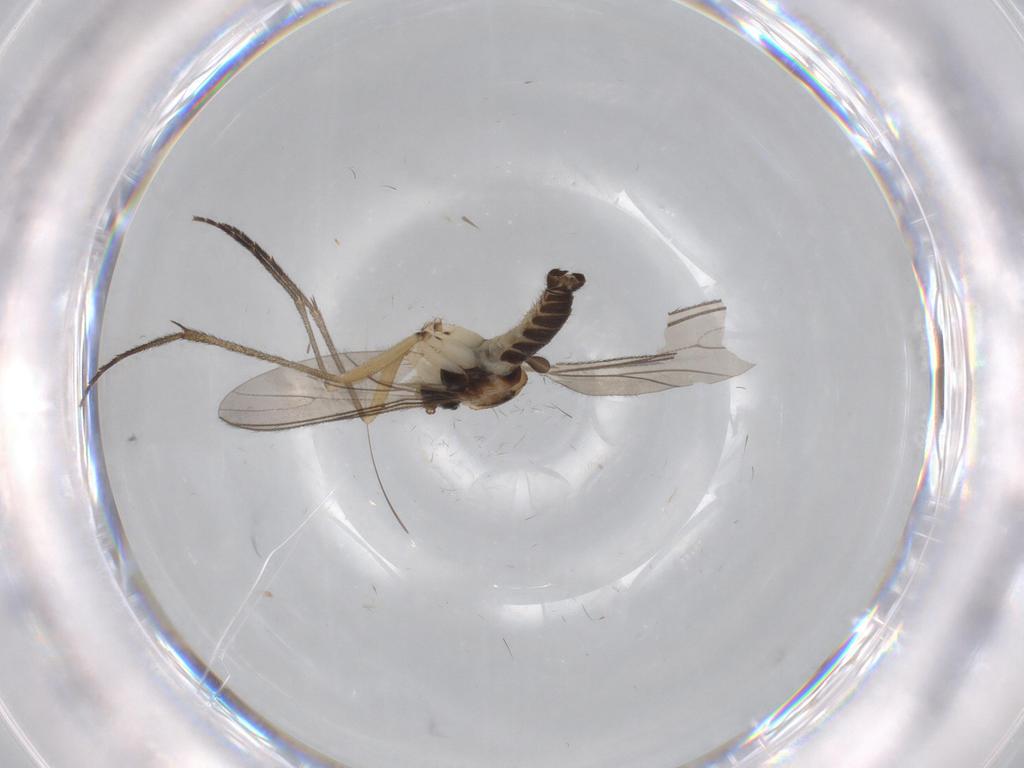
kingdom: Animalia
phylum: Arthropoda
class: Insecta
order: Diptera
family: Sciaridae
